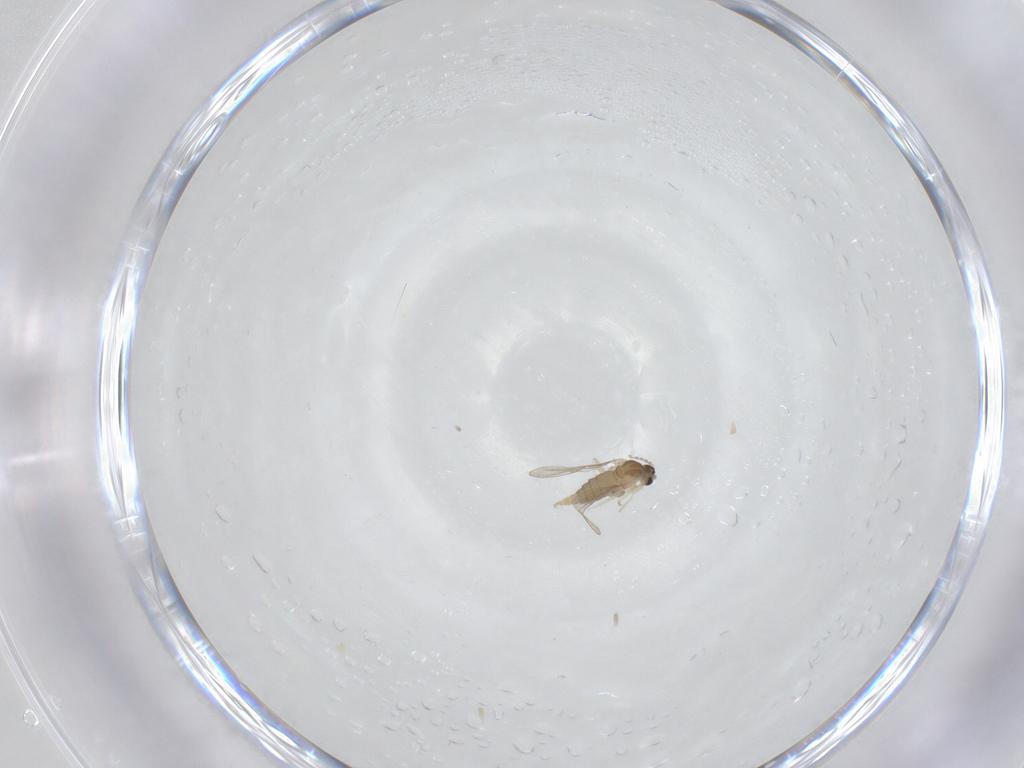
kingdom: Animalia
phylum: Arthropoda
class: Insecta
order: Diptera
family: Cecidomyiidae
